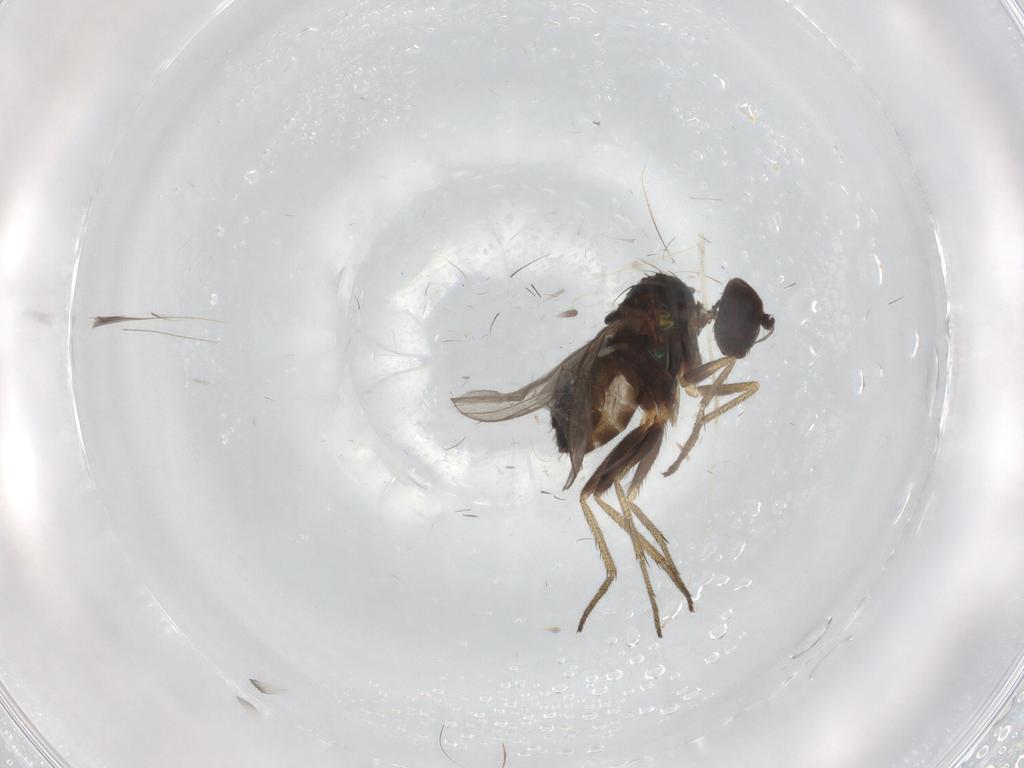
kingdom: Animalia
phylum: Arthropoda
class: Insecta
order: Diptera
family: Cecidomyiidae
